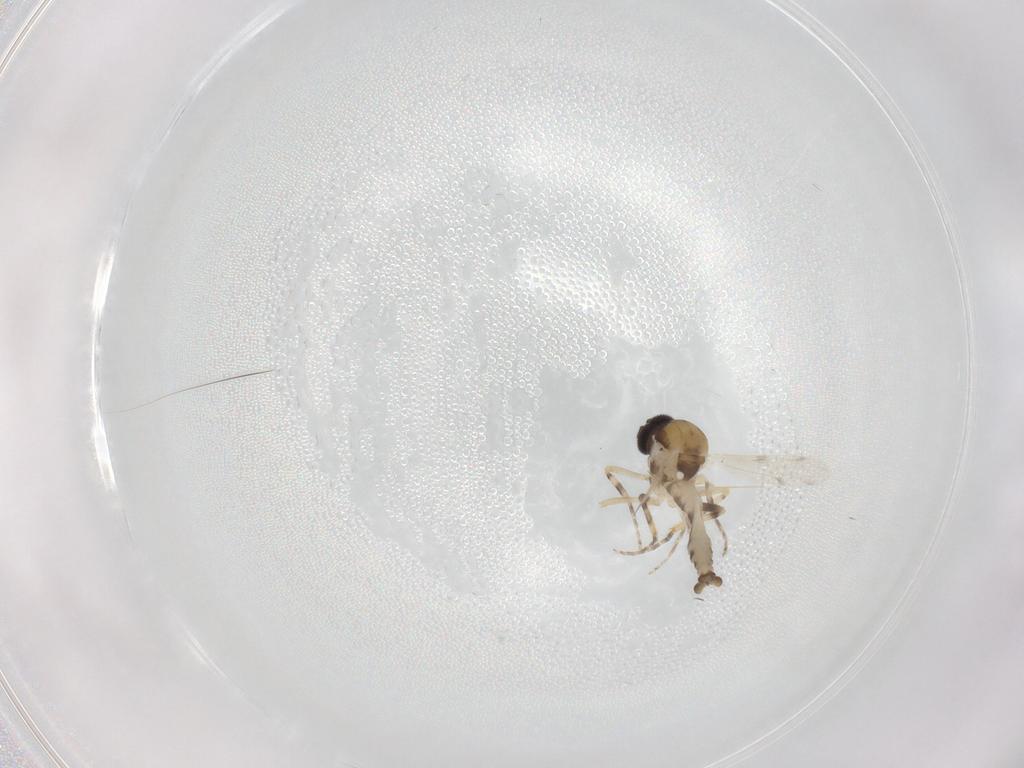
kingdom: Animalia
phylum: Arthropoda
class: Insecta
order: Diptera
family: Ceratopogonidae
